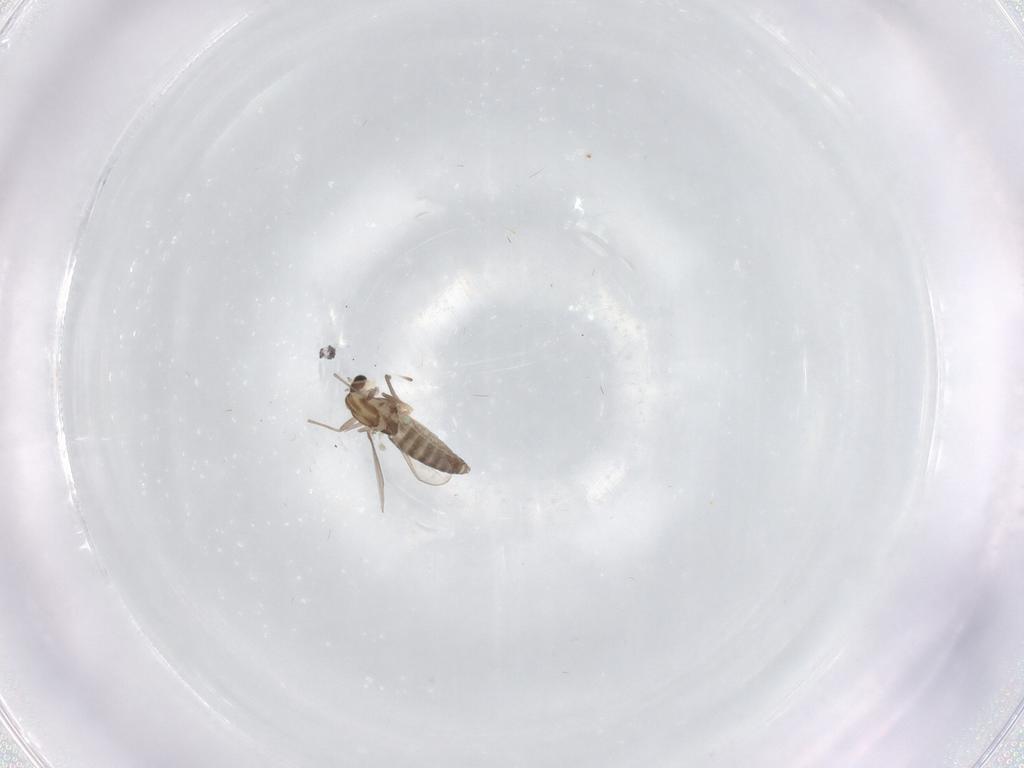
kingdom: Animalia
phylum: Arthropoda
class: Insecta
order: Diptera
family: Chironomidae
